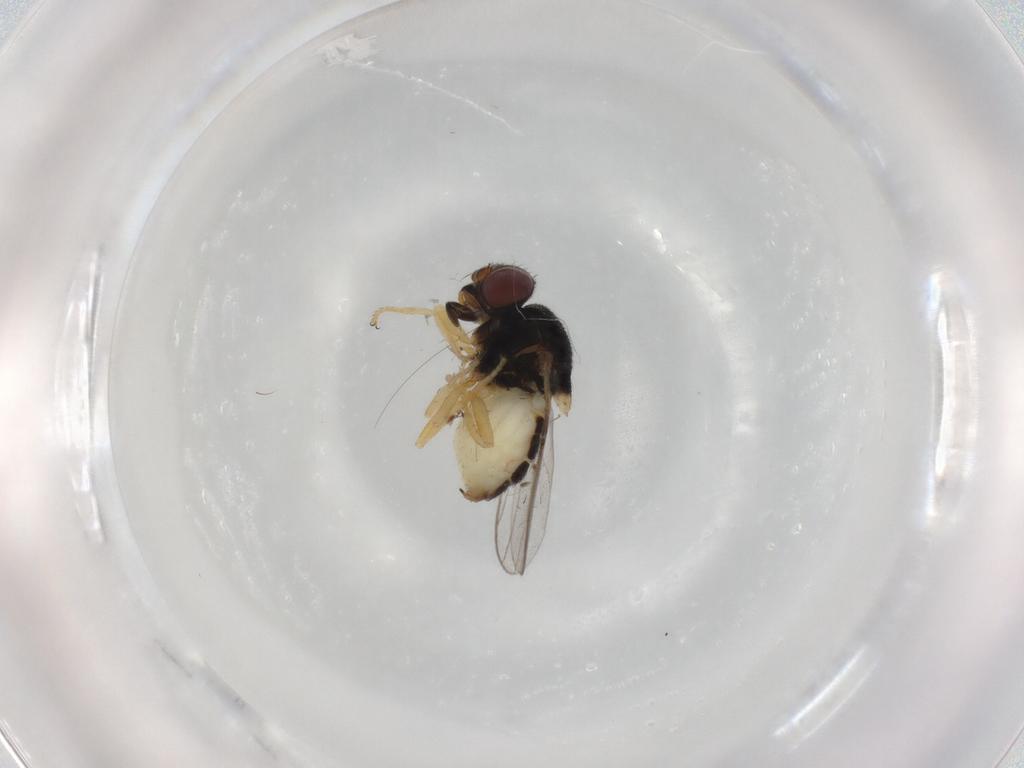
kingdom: Animalia
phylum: Arthropoda
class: Insecta
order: Diptera
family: Chloropidae
